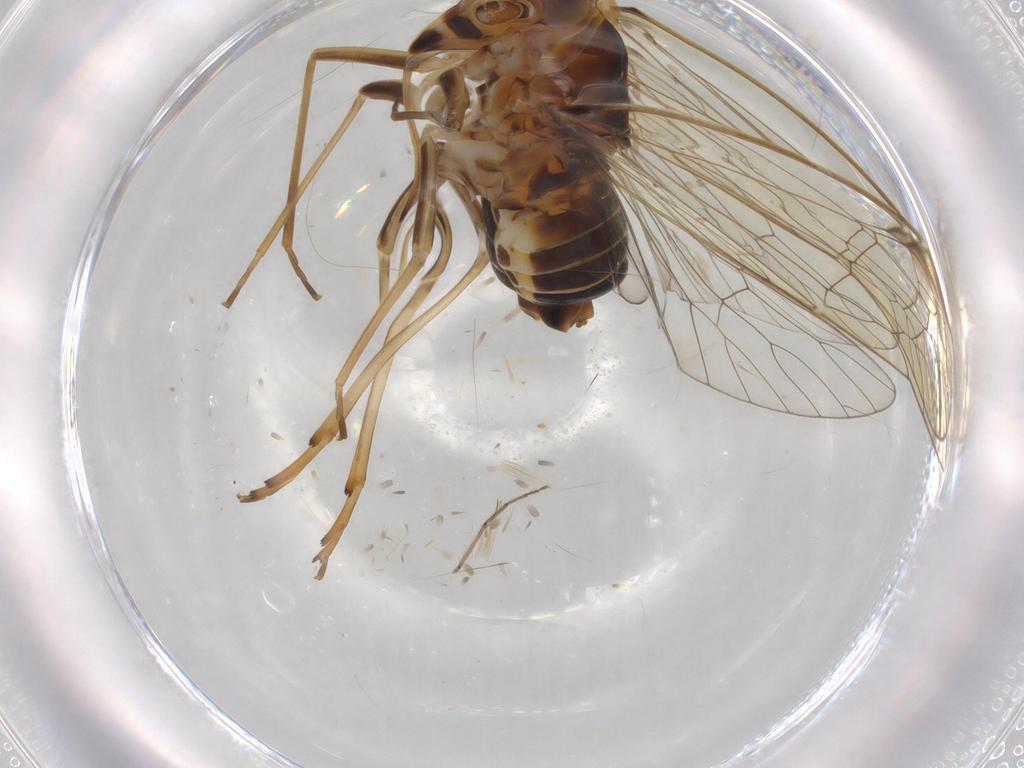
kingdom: Animalia
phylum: Arthropoda
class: Insecta
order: Hemiptera
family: Kinnaridae
